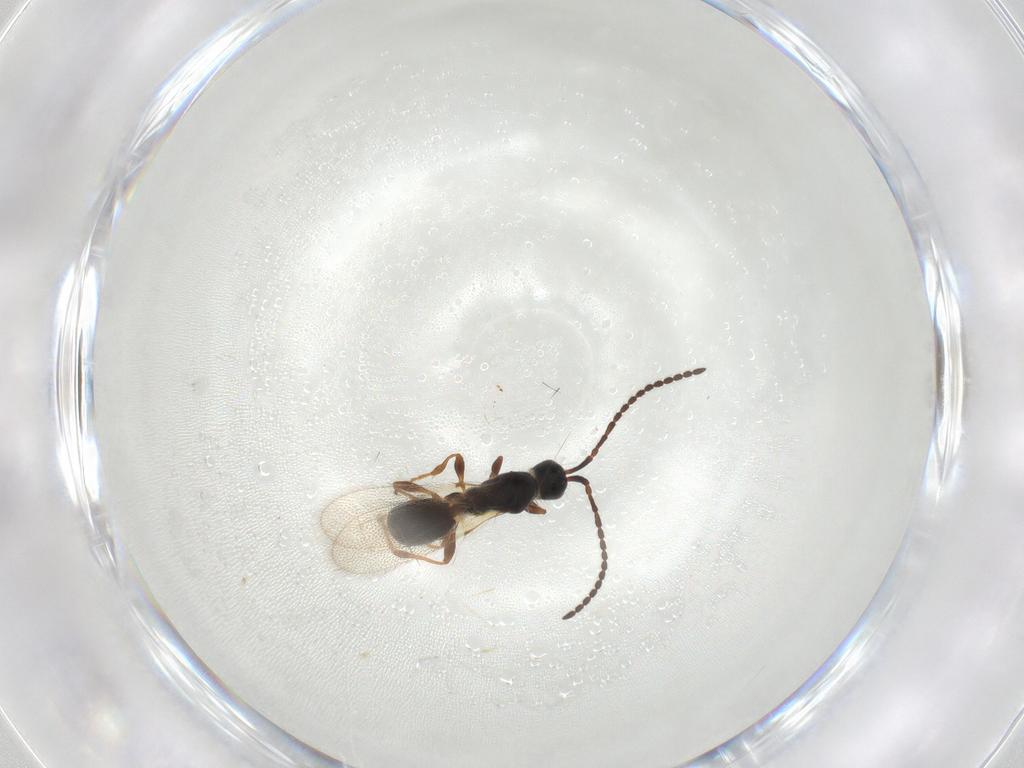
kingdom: Animalia
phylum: Arthropoda
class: Insecta
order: Hymenoptera
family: Diapriidae
